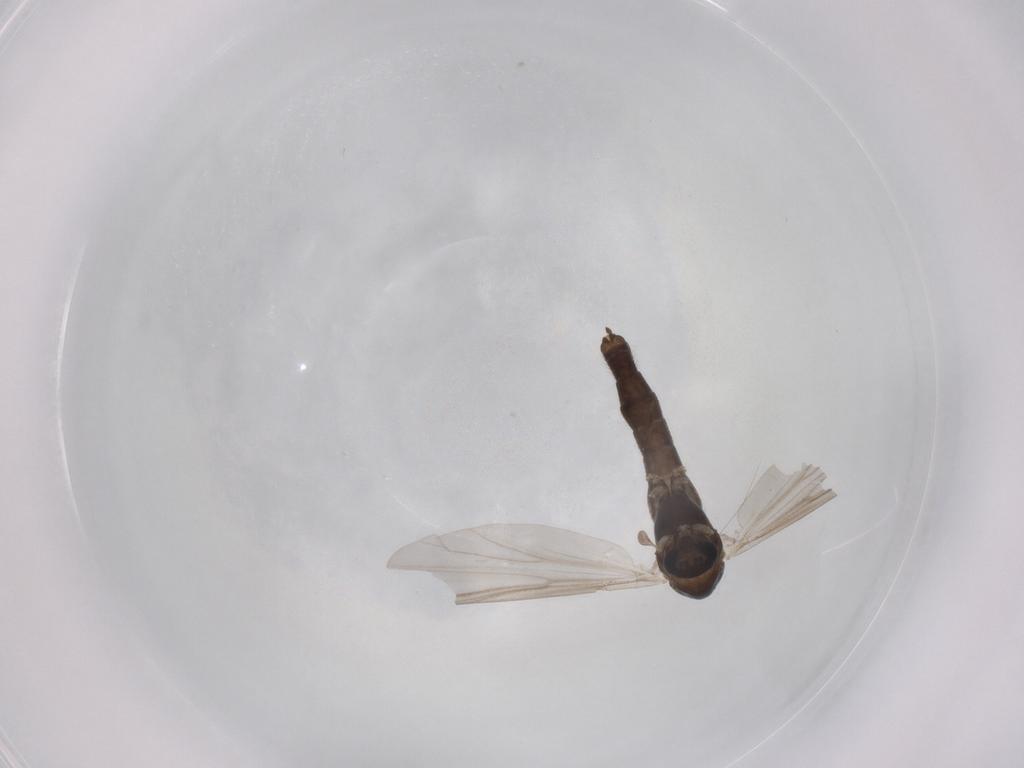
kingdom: Animalia
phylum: Arthropoda
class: Insecta
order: Diptera
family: Chironomidae
